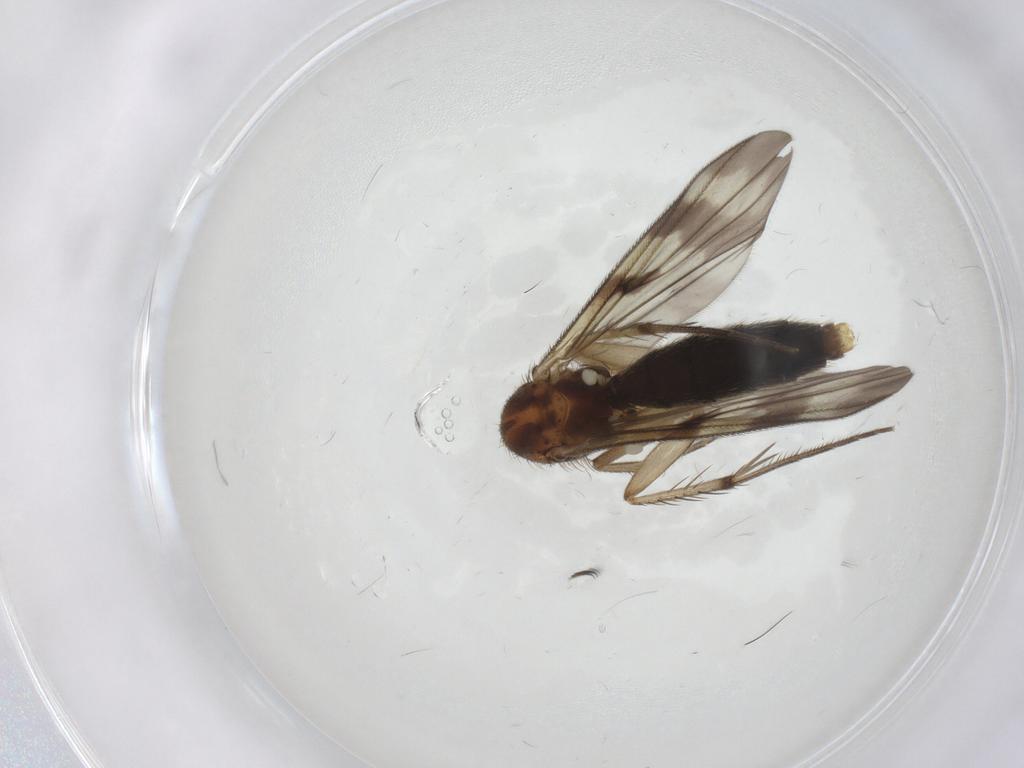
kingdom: Animalia
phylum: Arthropoda
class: Insecta
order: Diptera
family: Mycetophilidae
